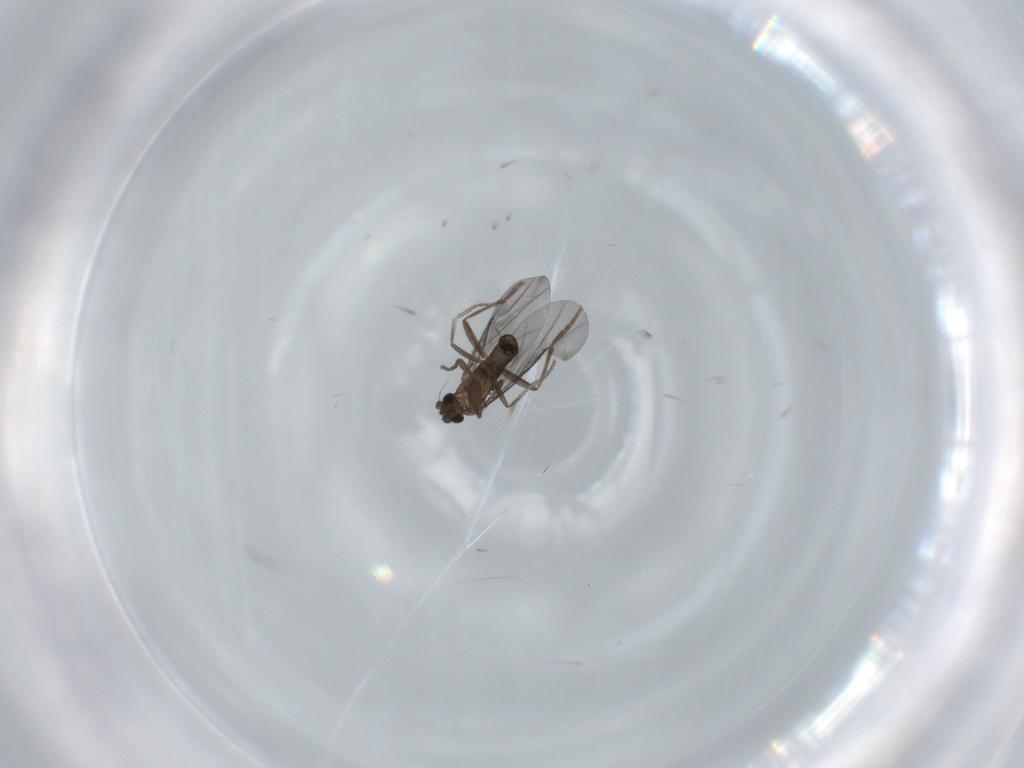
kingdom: Animalia
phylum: Arthropoda
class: Insecta
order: Diptera
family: Phoridae
